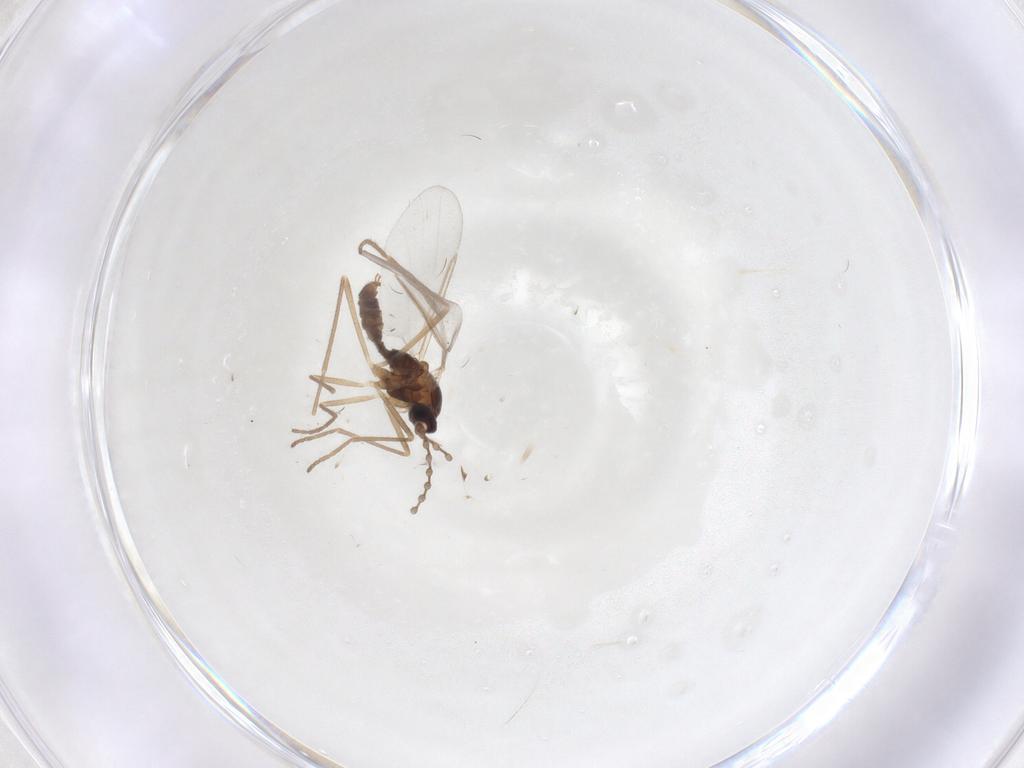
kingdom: Animalia
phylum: Arthropoda
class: Insecta
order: Diptera
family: Cecidomyiidae
